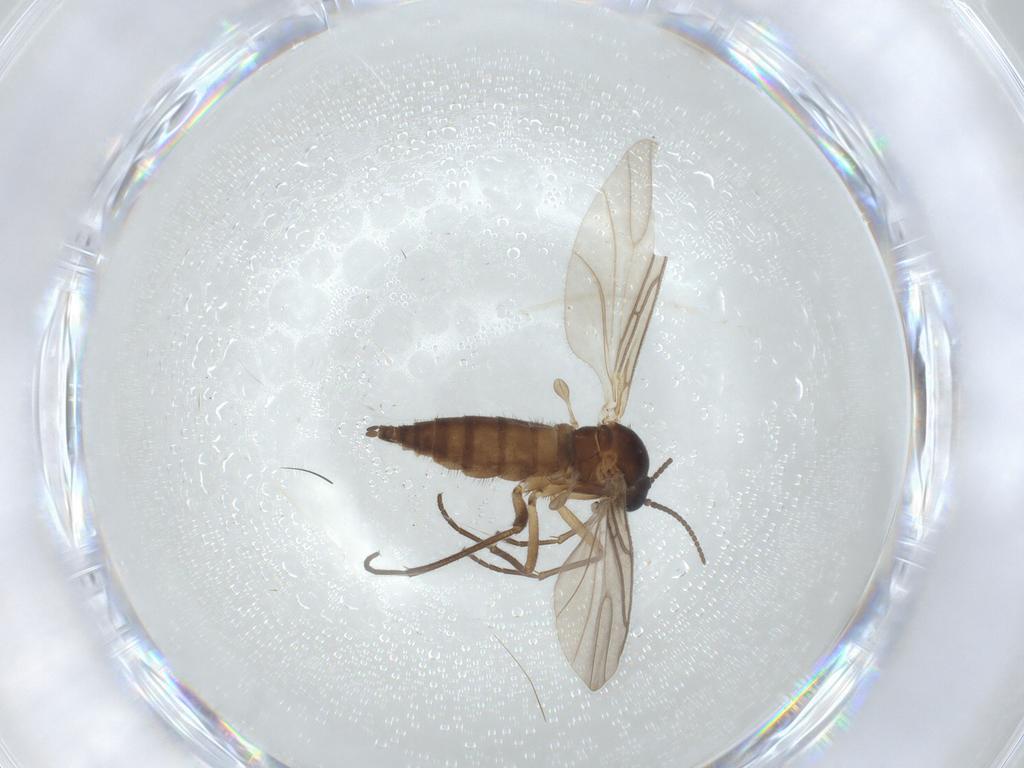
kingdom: Animalia
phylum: Arthropoda
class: Insecta
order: Diptera
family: Sciaridae
